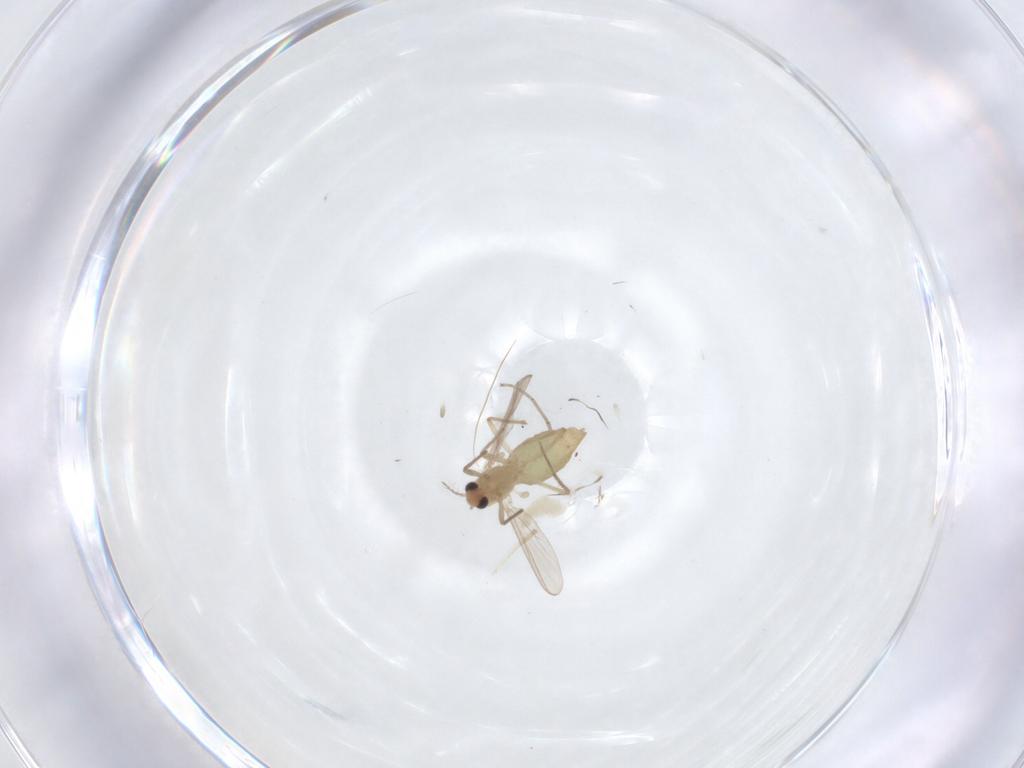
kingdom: Animalia
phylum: Arthropoda
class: Insecta
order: Diptera
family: Chironomidae
